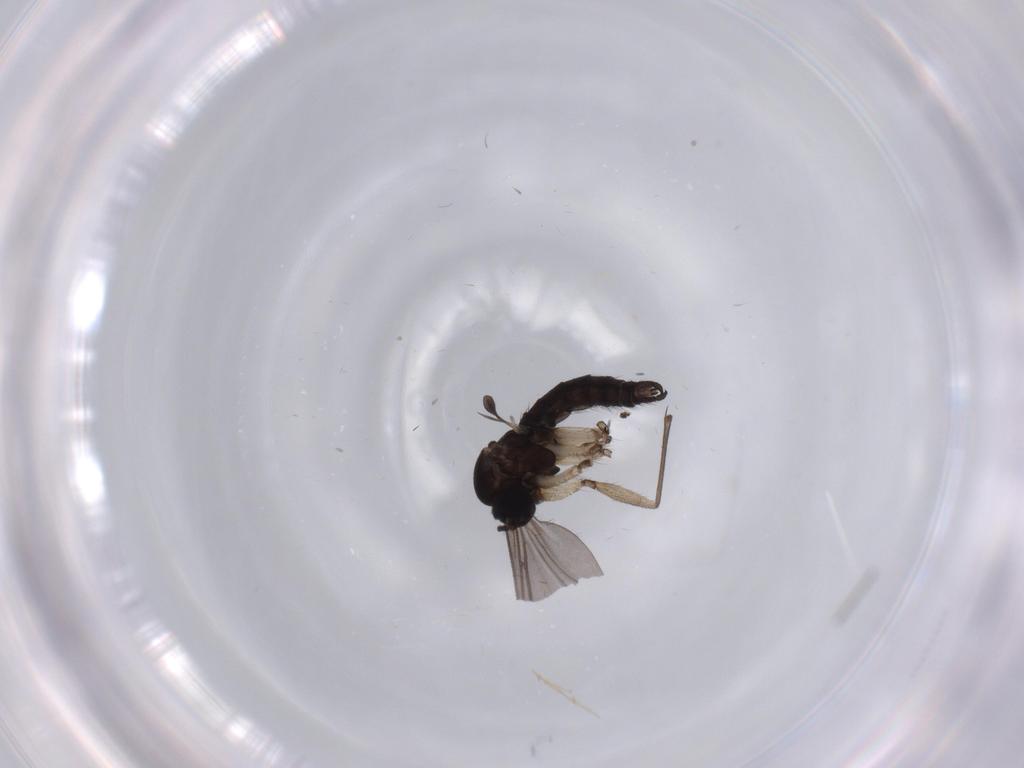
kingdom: Animalia
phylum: Arthropoda
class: Insecta
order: Diptera
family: Chironomidae
